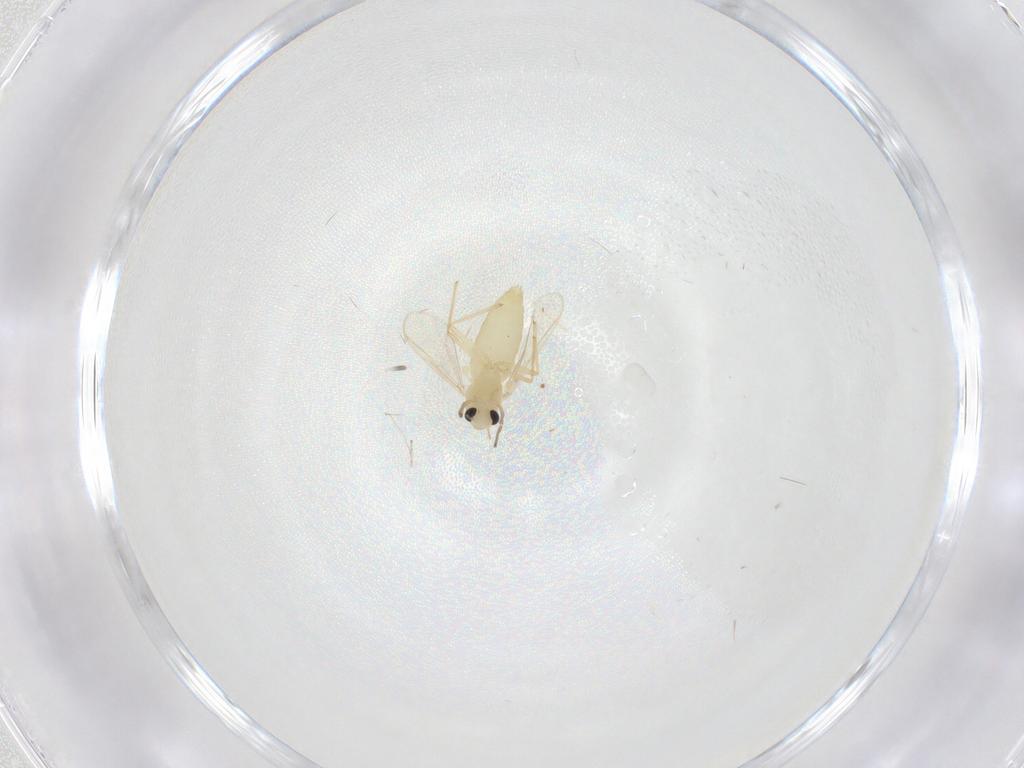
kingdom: Animalia
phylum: Arthropoda
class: Insecta
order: Diptera
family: Chironomidae
